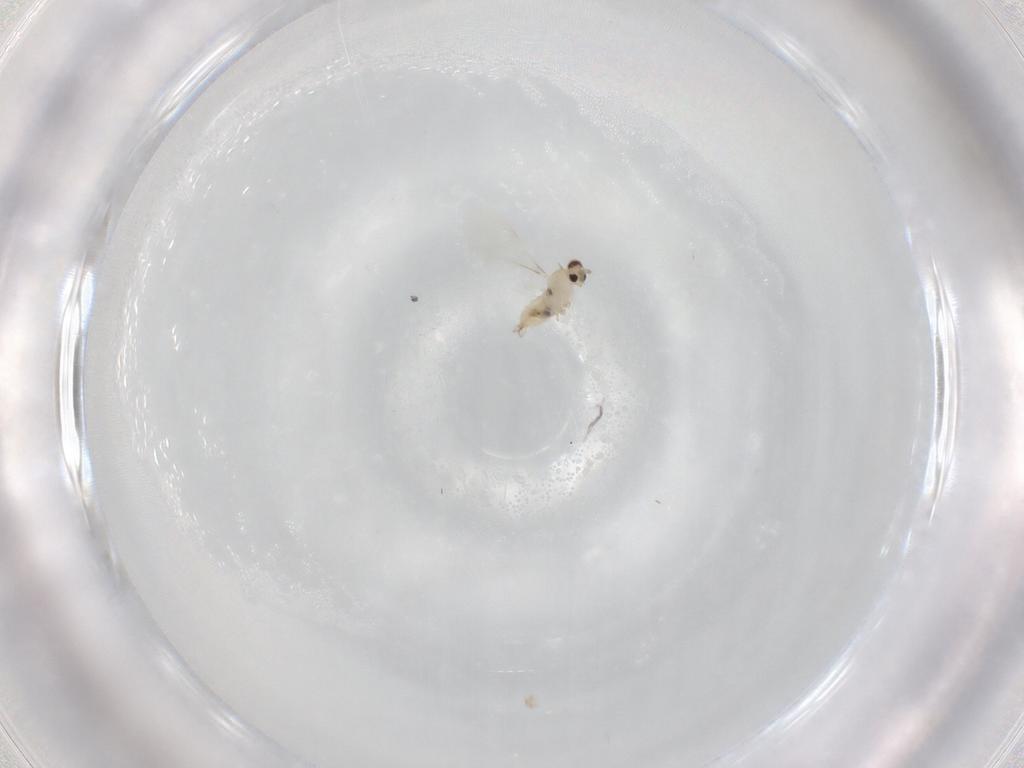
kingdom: Animalia
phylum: Arthropoda
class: Insecta
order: Diptera
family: Cecidomyiidae
